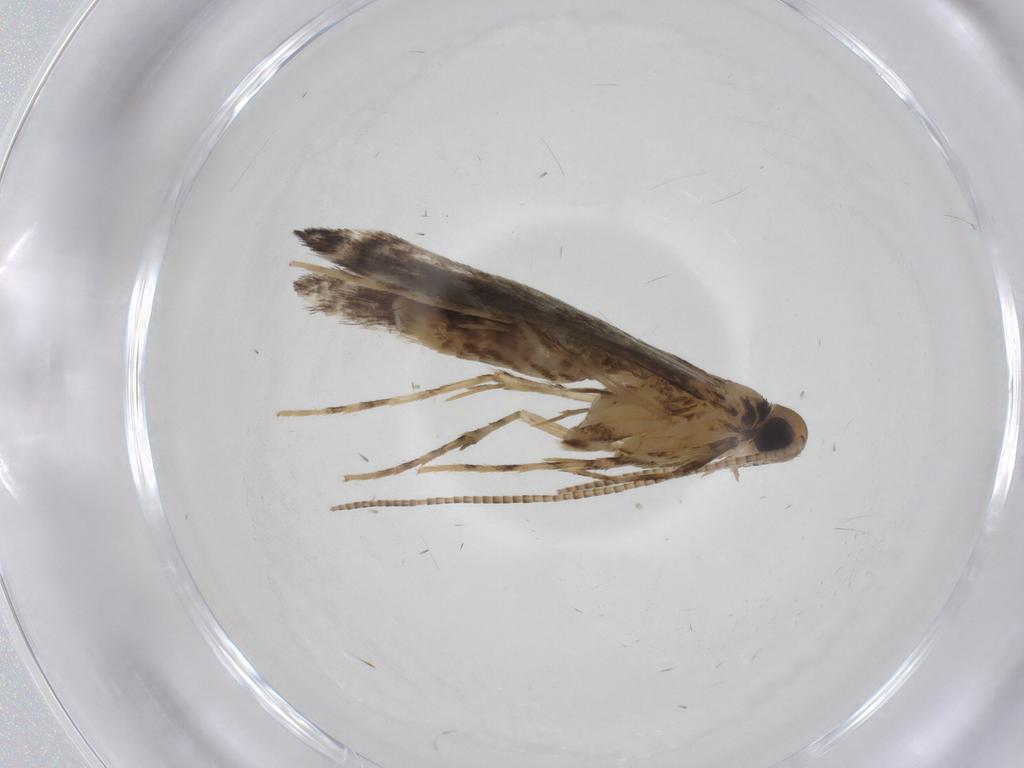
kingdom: Animalia
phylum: Arthropoda
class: Insecta
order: Lepidoptera
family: Gracillariidae
